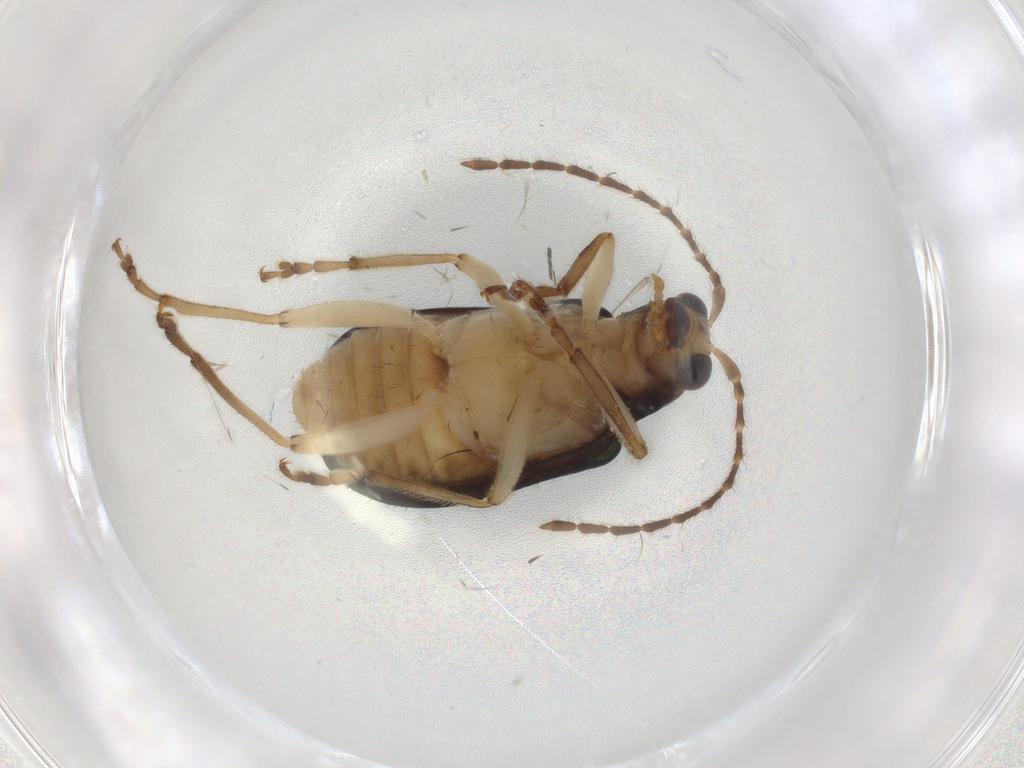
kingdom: Animalia
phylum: Arthropoda
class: Insecta
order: Coleoptera
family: Chrysomelidae
